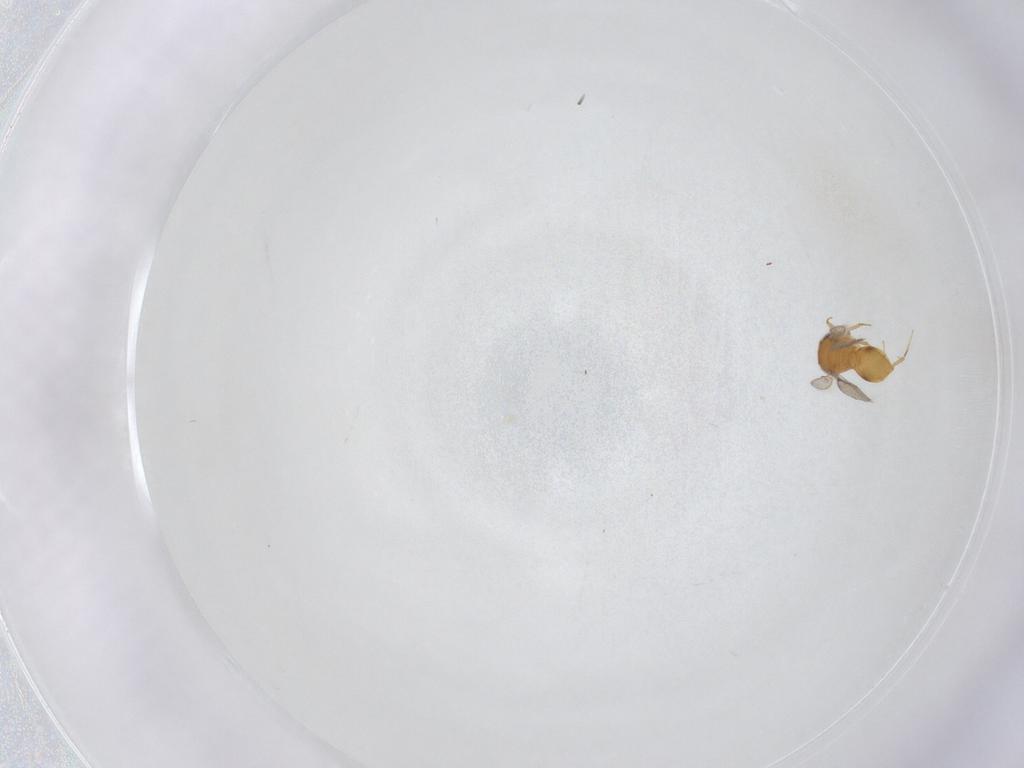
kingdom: Animalia
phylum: Arthropoda
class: Insecta
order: Hymenoptera
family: Scelionidae
